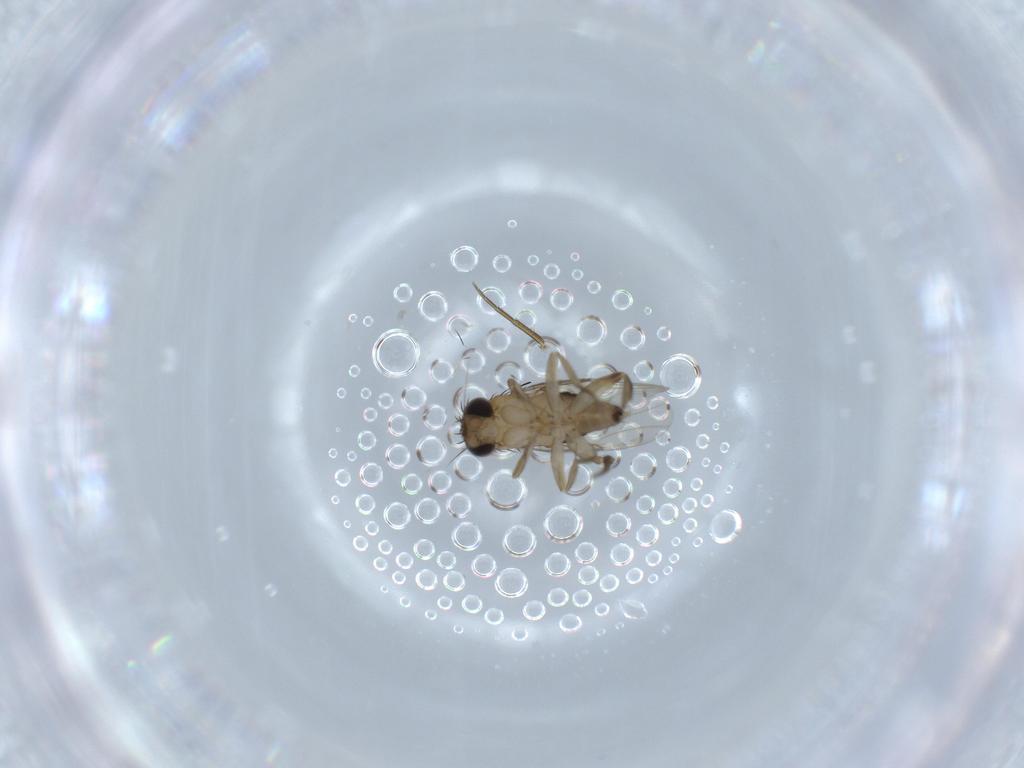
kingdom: Animalia
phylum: Arthropoda
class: Insecta
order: Diptera
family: Phoridae
